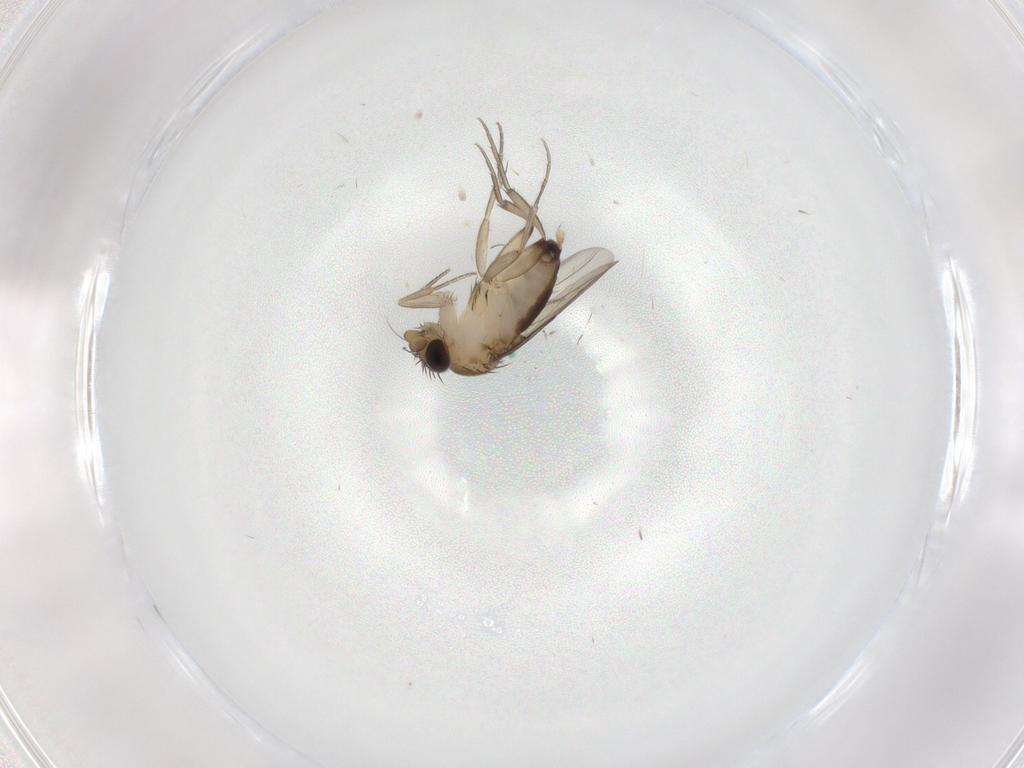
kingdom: Animalia
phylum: Arthropoda
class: Insecta
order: Diptera
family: Phoridae
